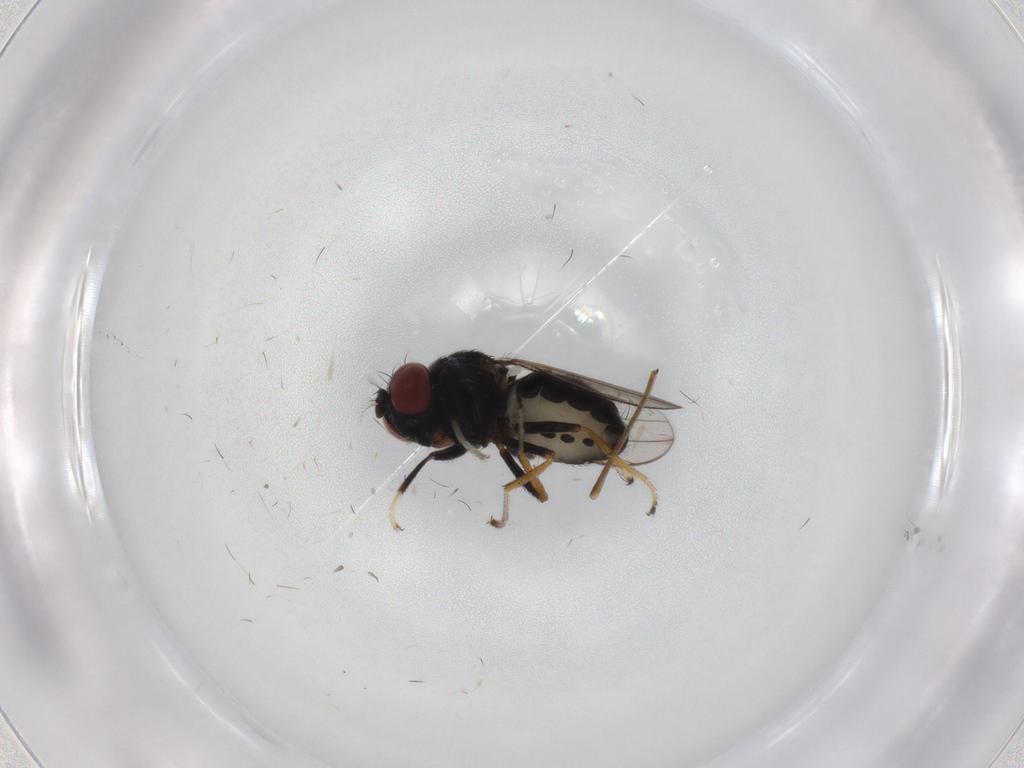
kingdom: Animalia
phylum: Arthropoda
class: Insecta
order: Diptera
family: Ephydridae
